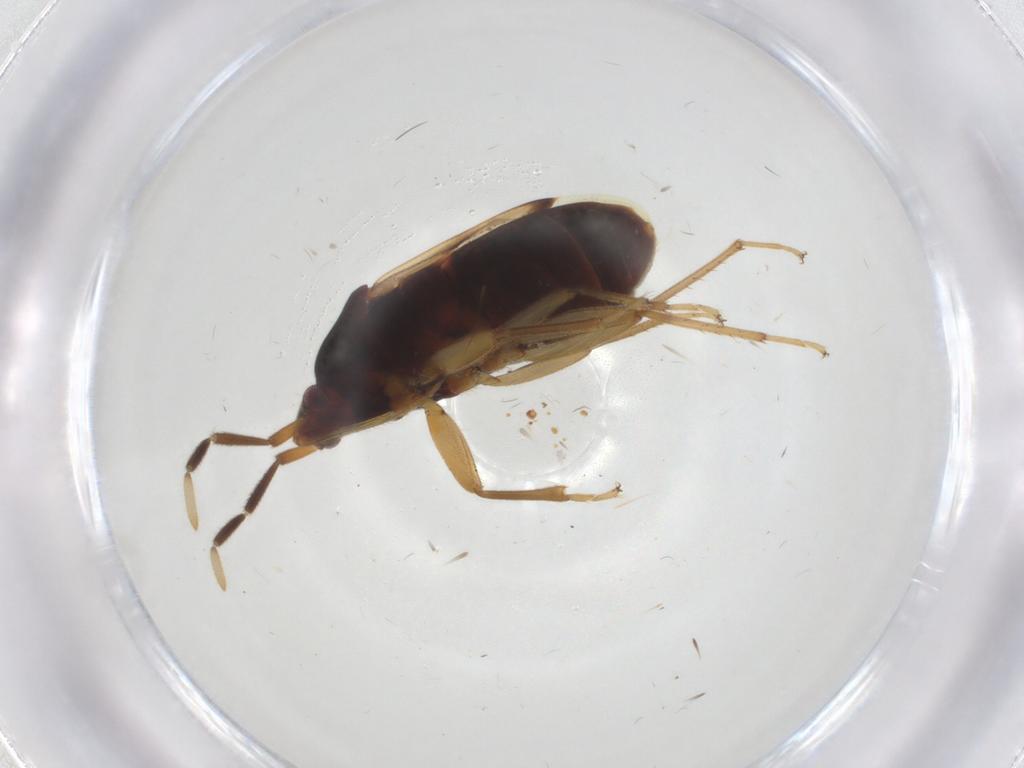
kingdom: Animalia
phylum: Arthropoda
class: Insecta
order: Hemiptera
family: Rhyparochromidae
